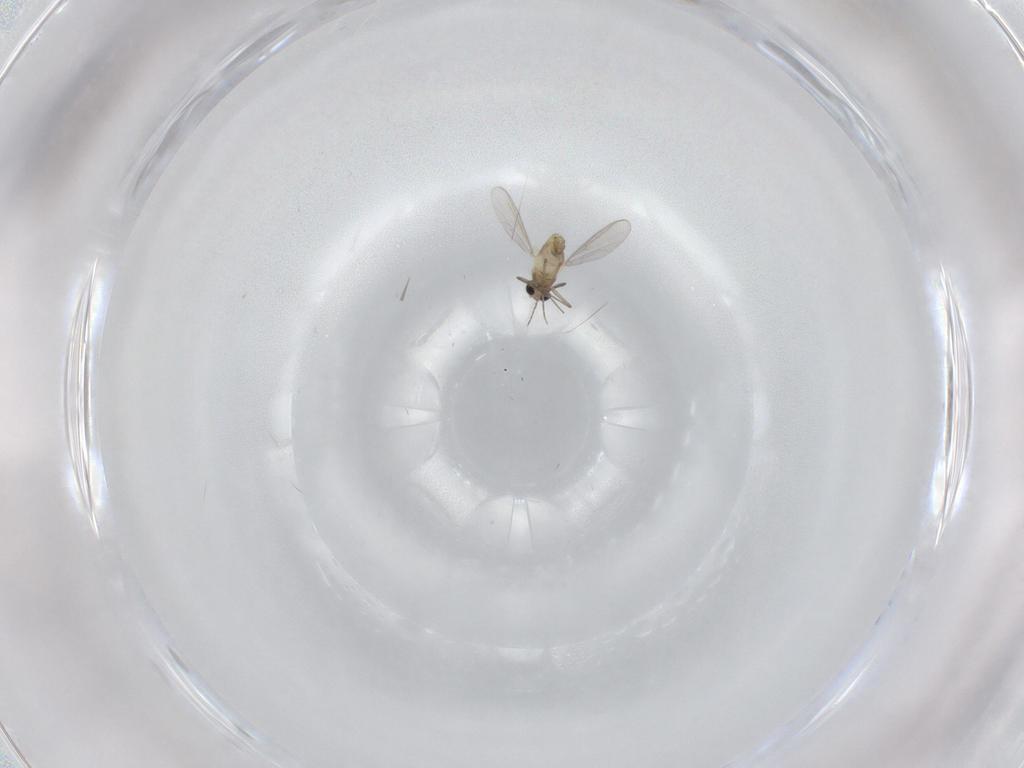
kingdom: Animalia
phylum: Arthropoda
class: Insecta
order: Diptera
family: Chironomidae
